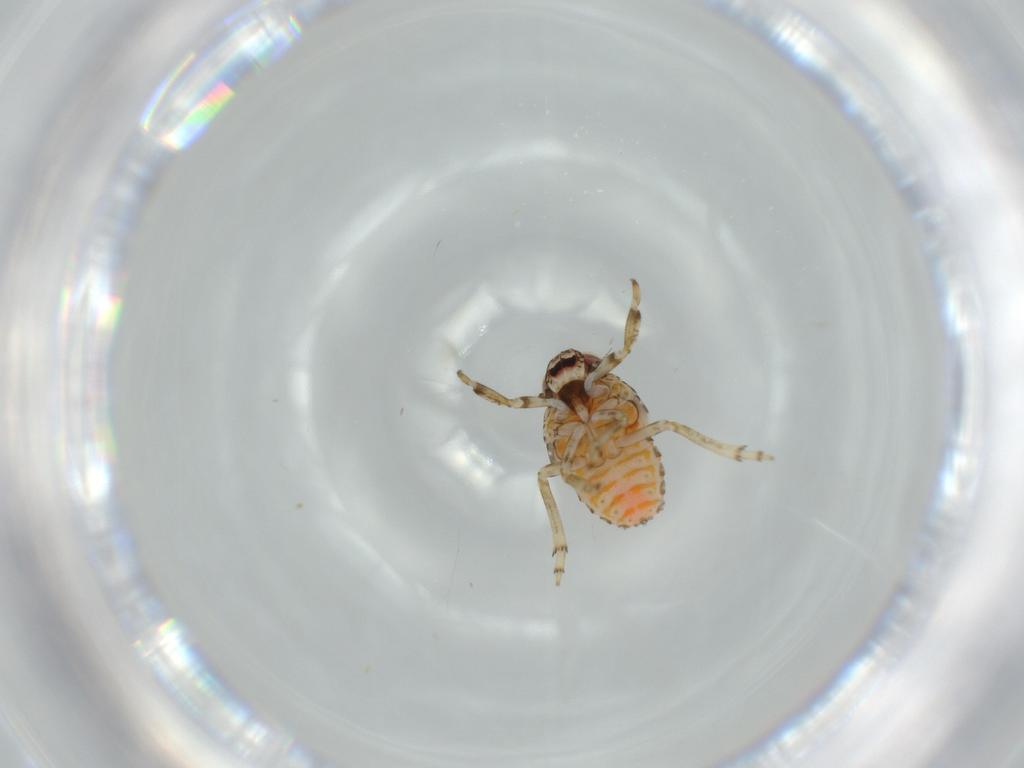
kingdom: Animalia
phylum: Arthropoda
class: Insecta
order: Hemiptera
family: Issidae
